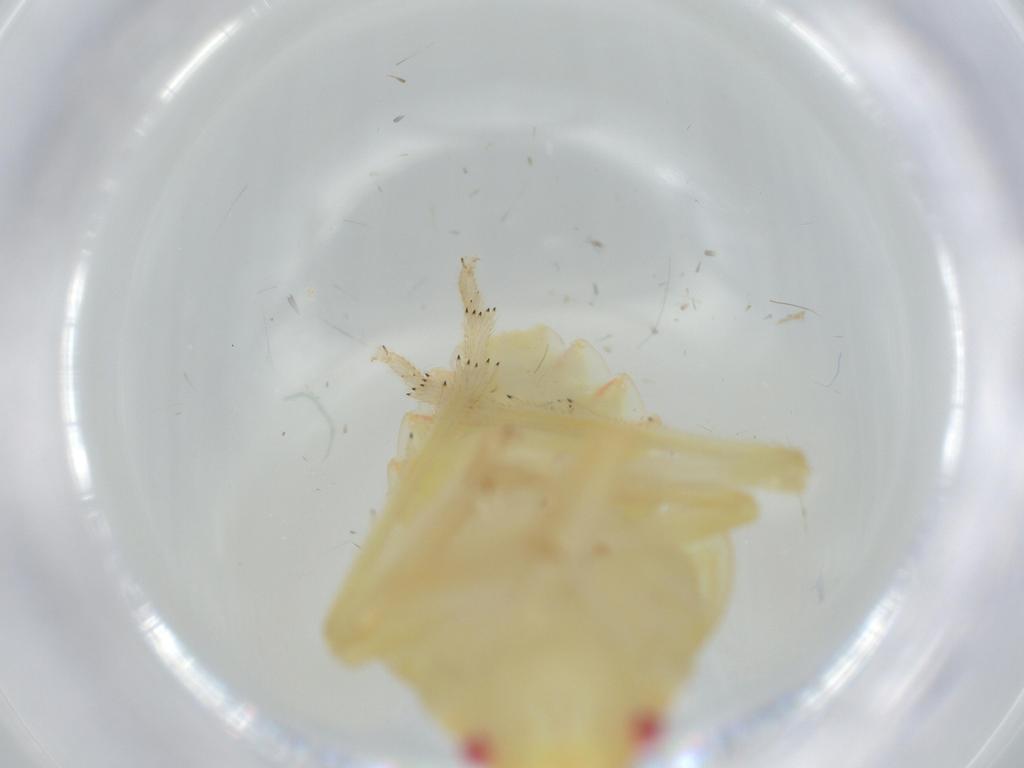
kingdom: Animalia
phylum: Arthropoda
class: Insecta
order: Hemiptera
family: Tropiduchidae
